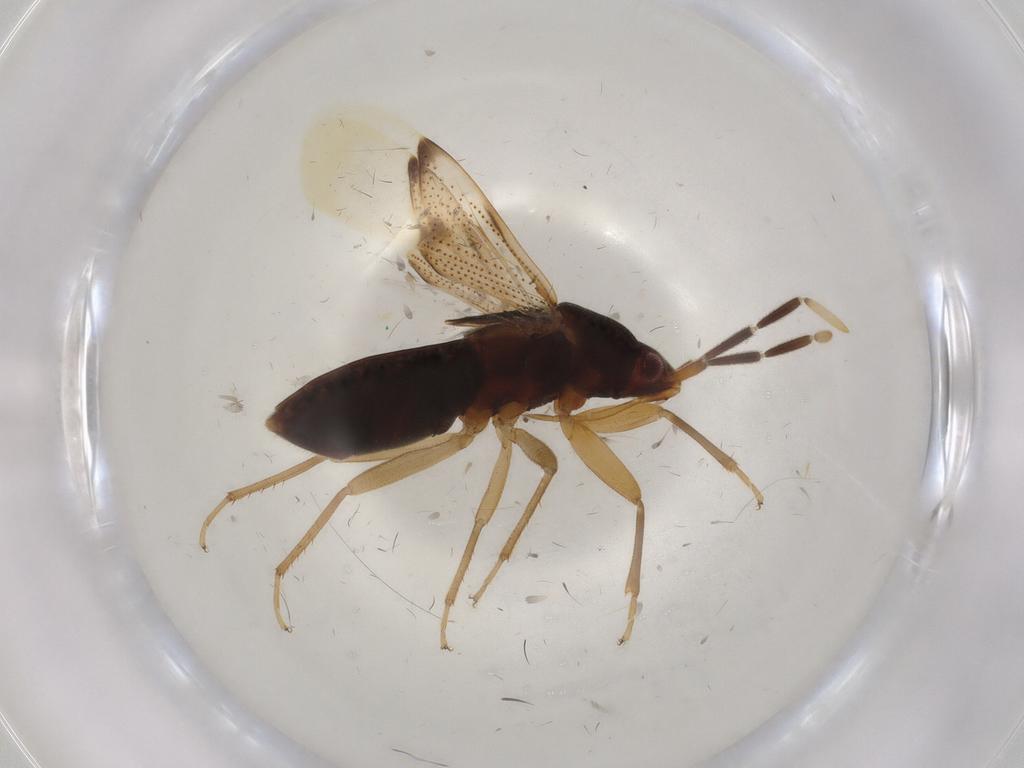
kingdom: Animalia
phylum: Arthropoda
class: Insecta
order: Hemiptera
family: Rhyparochromidae
